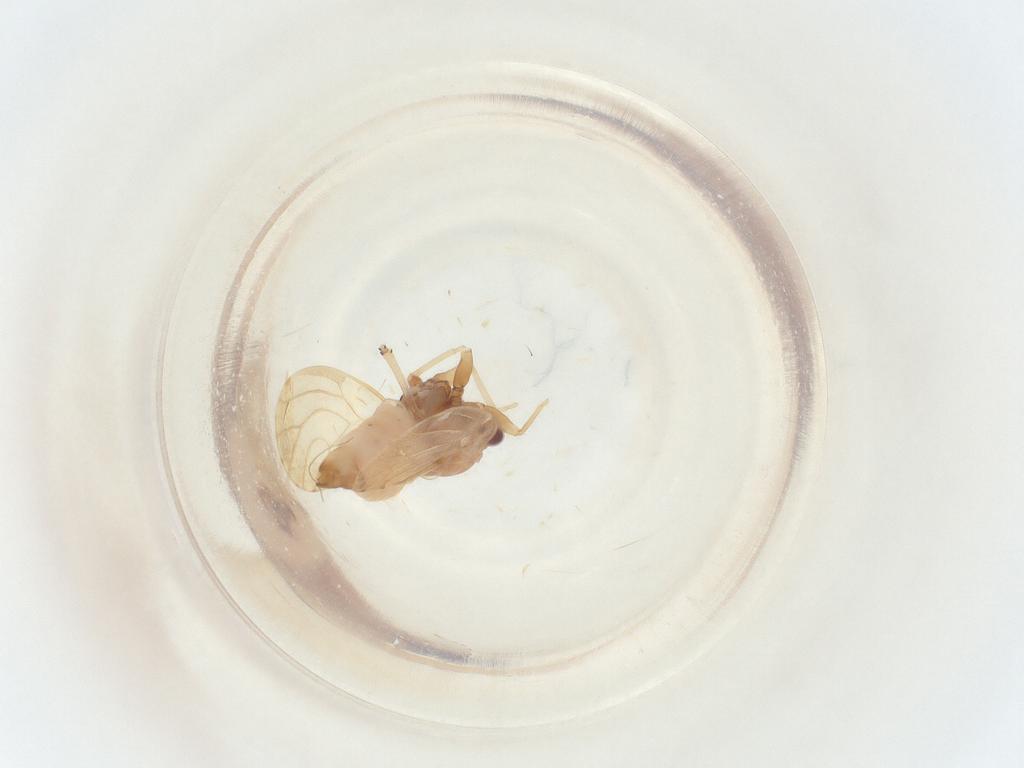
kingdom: Animalia
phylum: Arthropoda
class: Insecta
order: Hymenoptera
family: Trichogrammatidae
